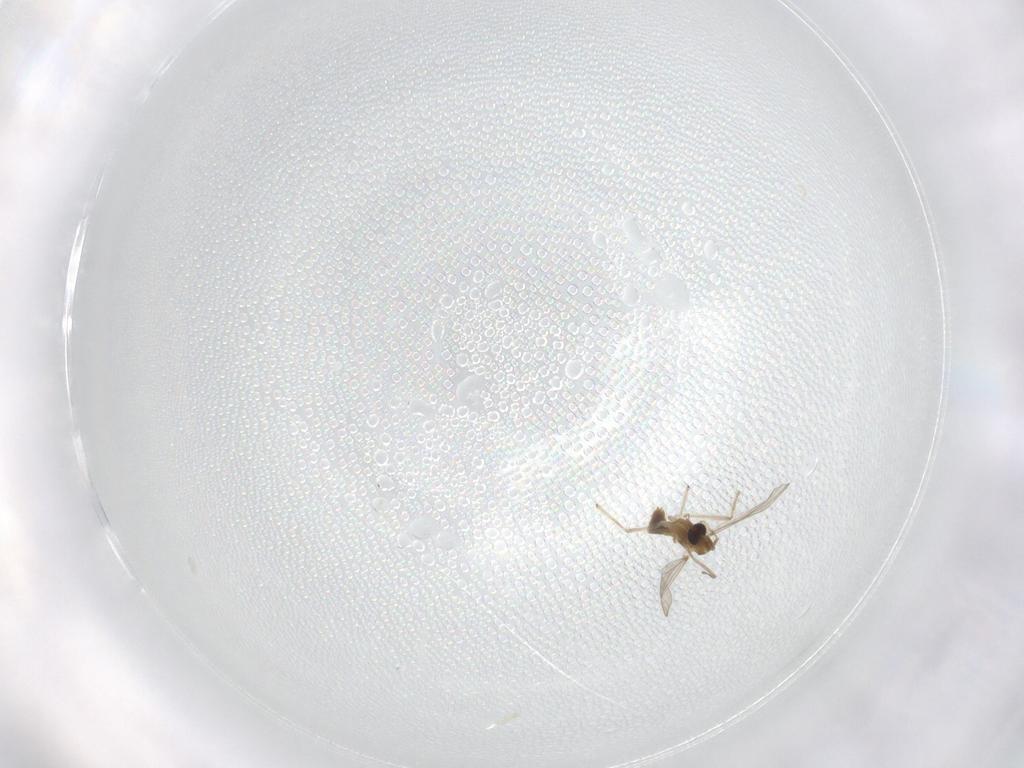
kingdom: Animalia
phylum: Arthropoda
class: Insecta
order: Diptera
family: Chironomidae
